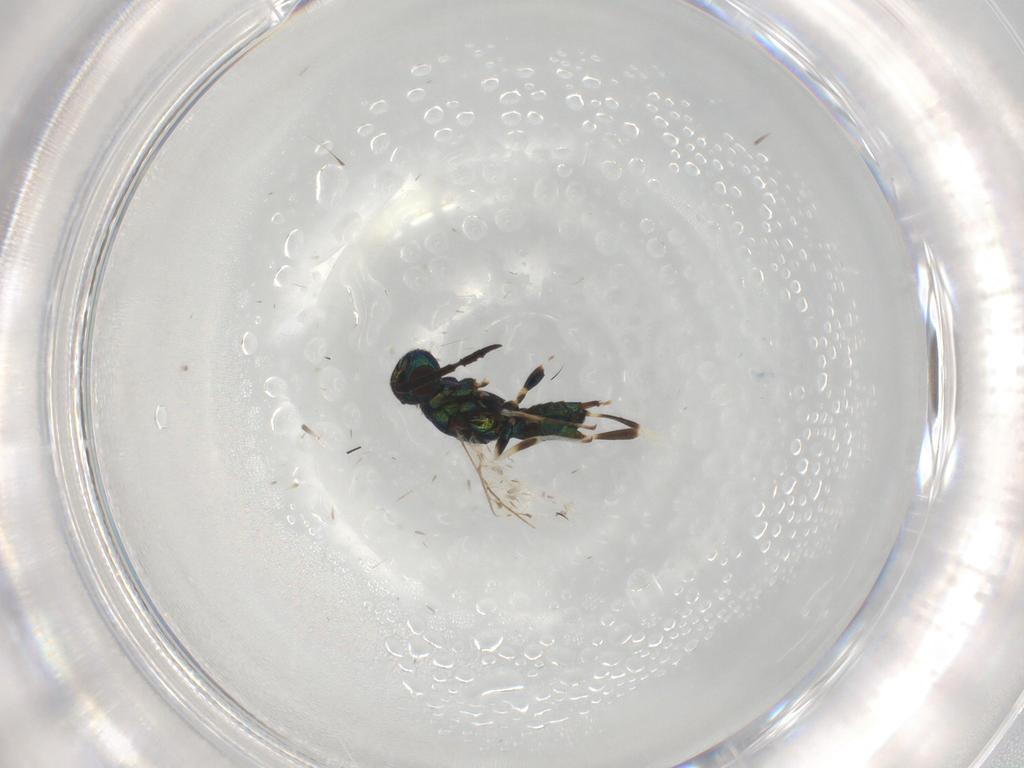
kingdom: Animalia
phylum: Arthropoda
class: Insecta
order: Hymenoptera
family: Eupelmidae
